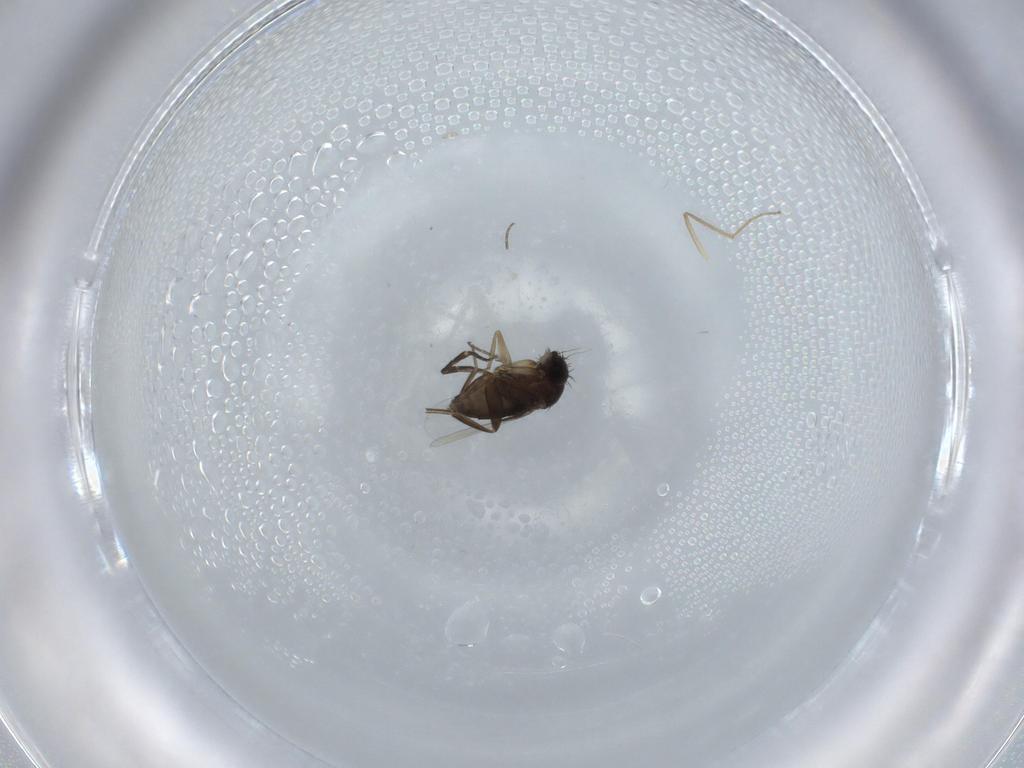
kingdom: Animalia
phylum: Arthropoda
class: Insecta
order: Diptera
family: Phoridae
